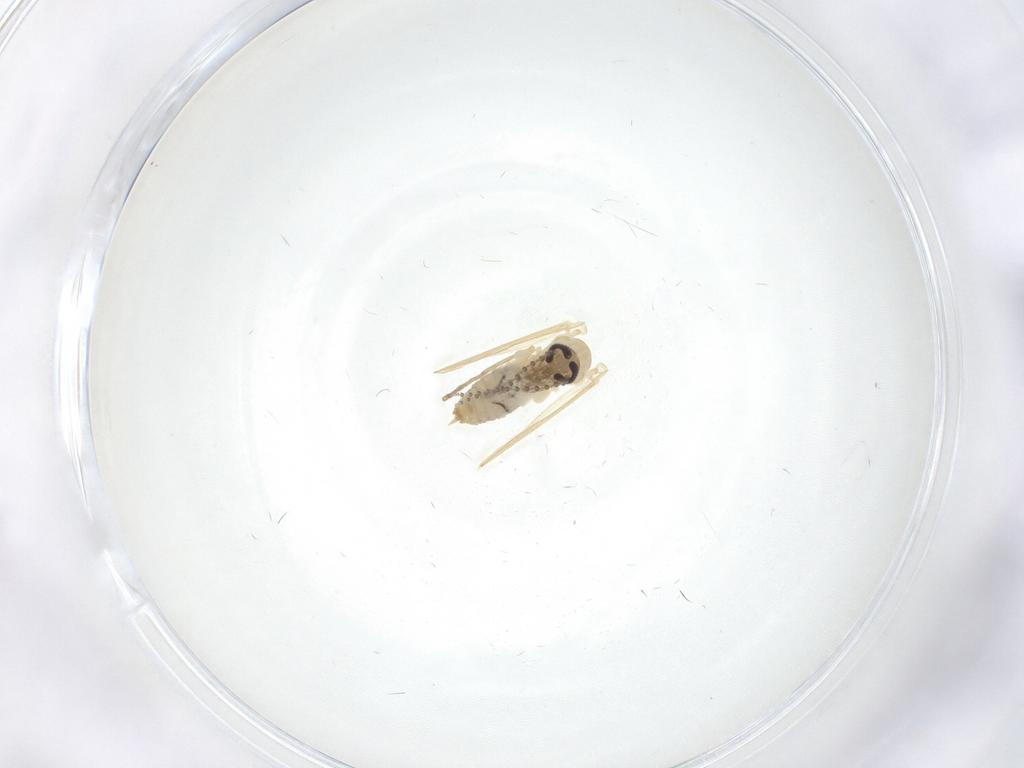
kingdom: Animalia
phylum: Arthropoda
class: Insecta
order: Diptera
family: Psychodidae
